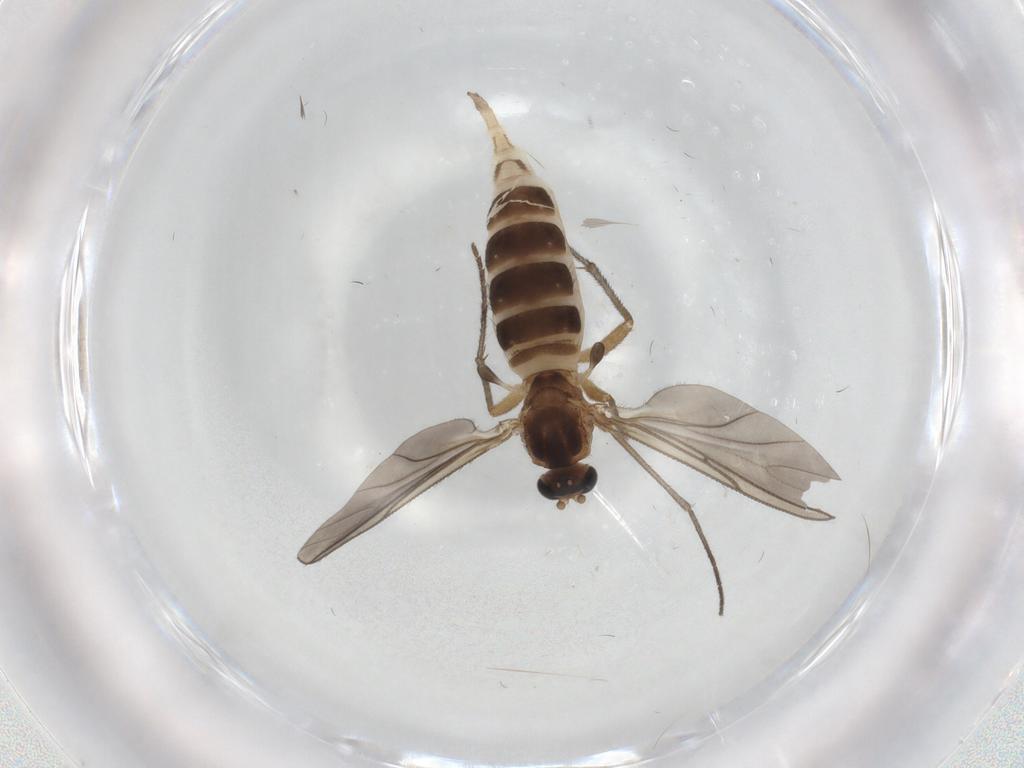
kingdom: Animalia
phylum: Arthropoda
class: Insecta
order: Diptera
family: Sciaridae
